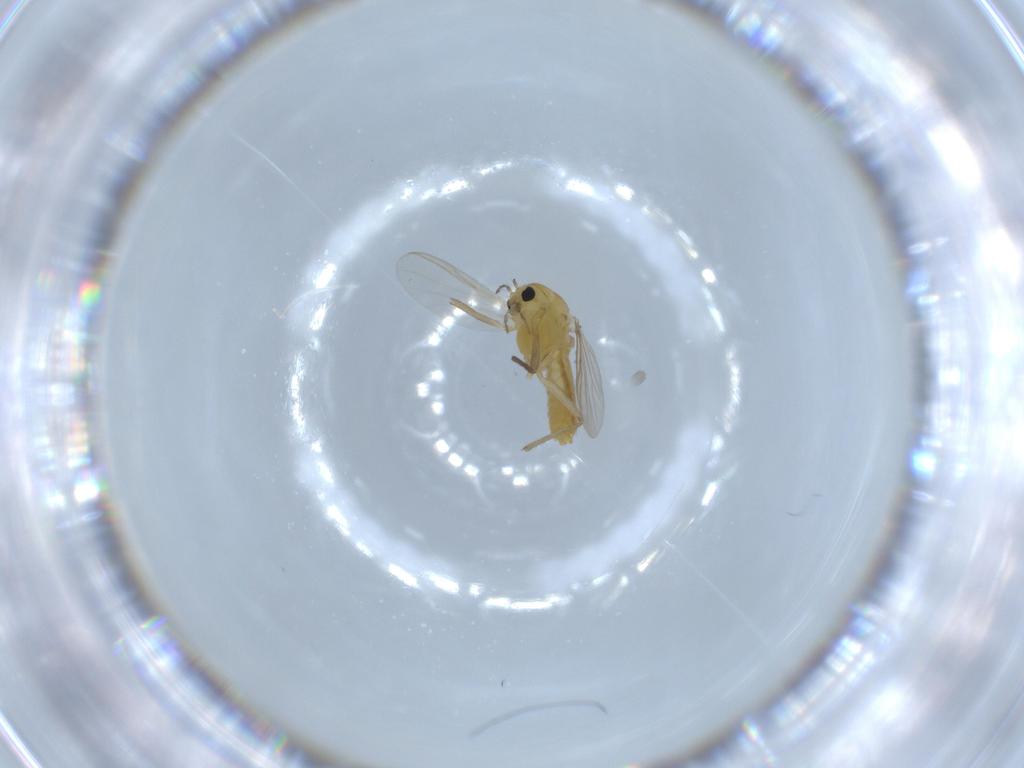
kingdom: Animalia
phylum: Arthropoda
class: Insecta
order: Diptera
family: Chironomidae
